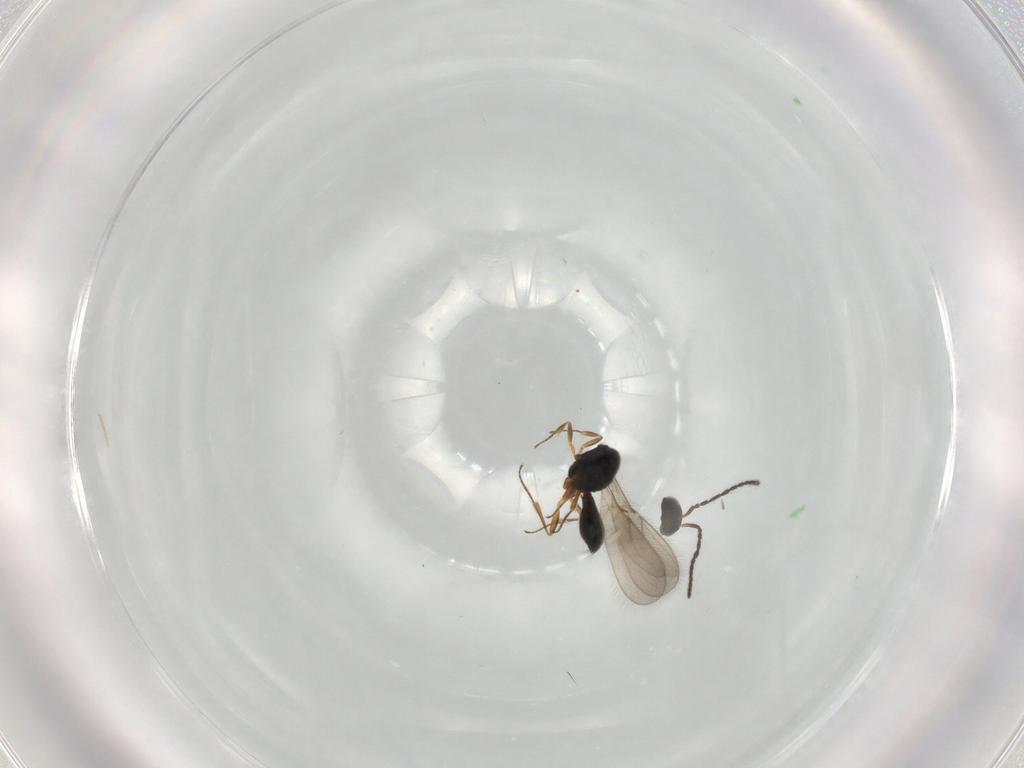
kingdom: Animalia
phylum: Arthropoda
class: Insecta
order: Hymenoptera
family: Scelionidae
